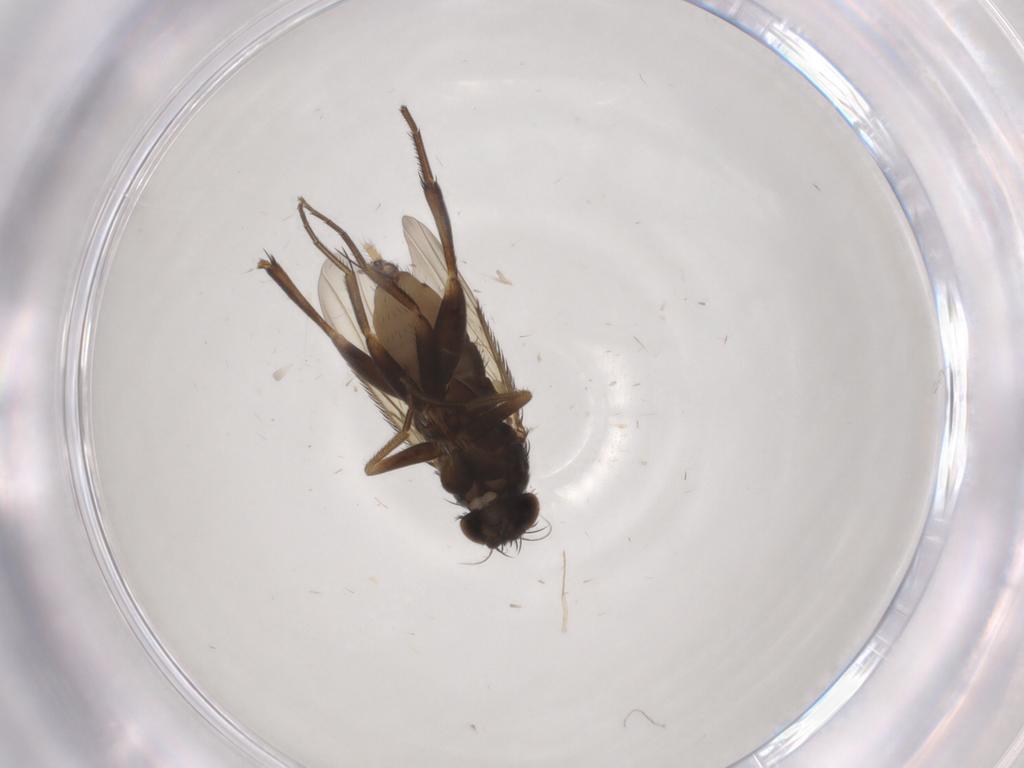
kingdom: Animalia
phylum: Arthropoda
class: Insecta
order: Diptera
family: Phoridae
